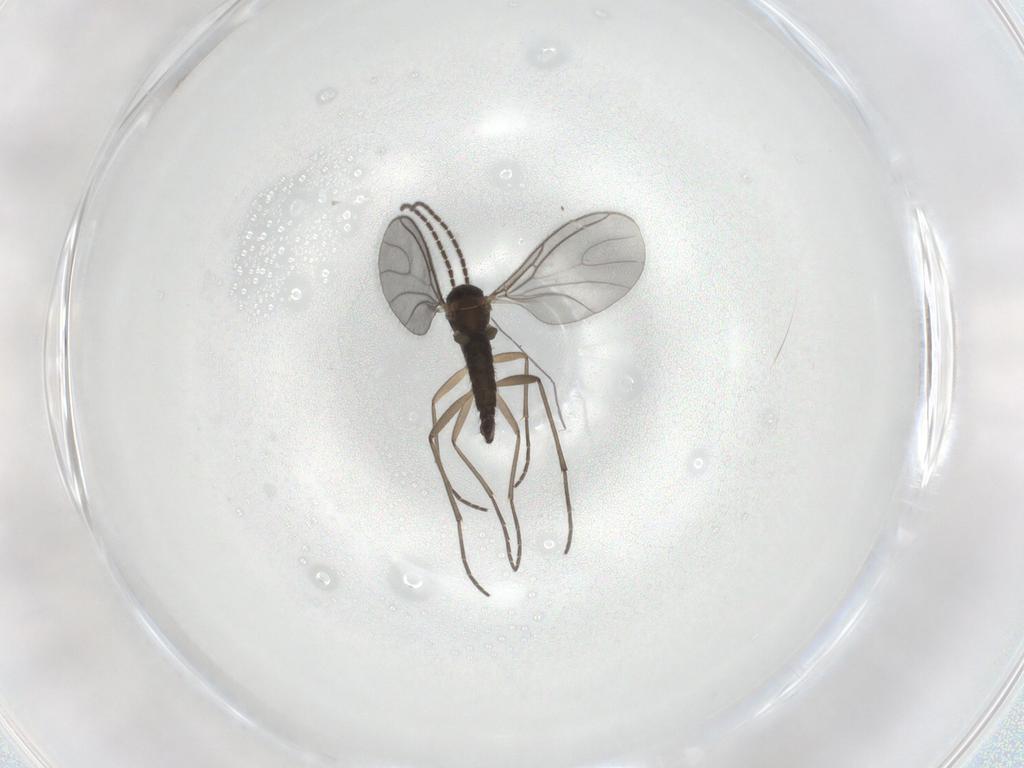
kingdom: Animalia
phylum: Arthropoda
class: Insecta
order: Diptera
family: Sciaridae
